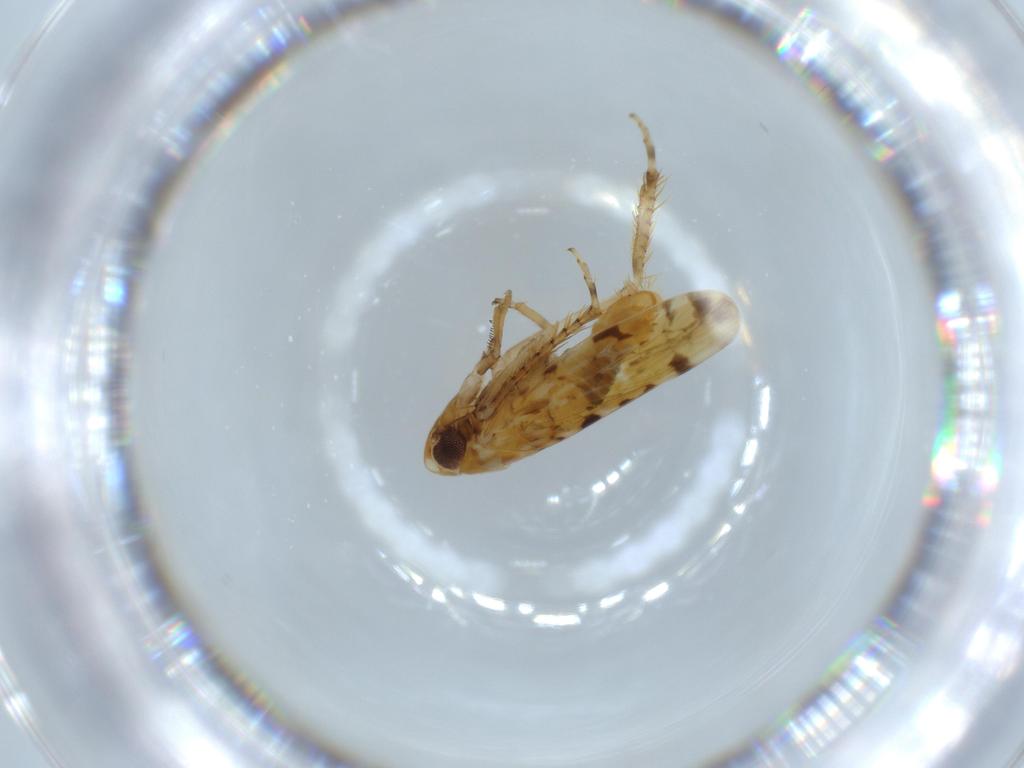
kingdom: Animalia
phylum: Arthropoda
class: Insecta
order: Hemiptera
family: Cicadellidae
